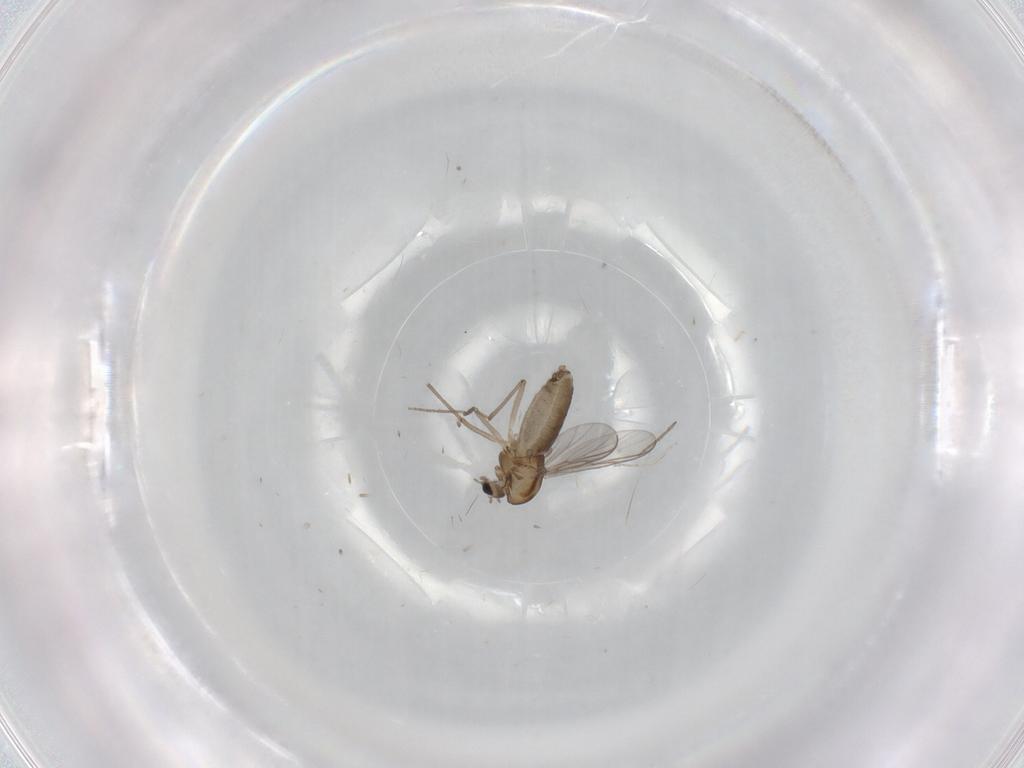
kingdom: Animalia
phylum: Arthropoda
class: Insecta
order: Diptera
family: Chironomidae
